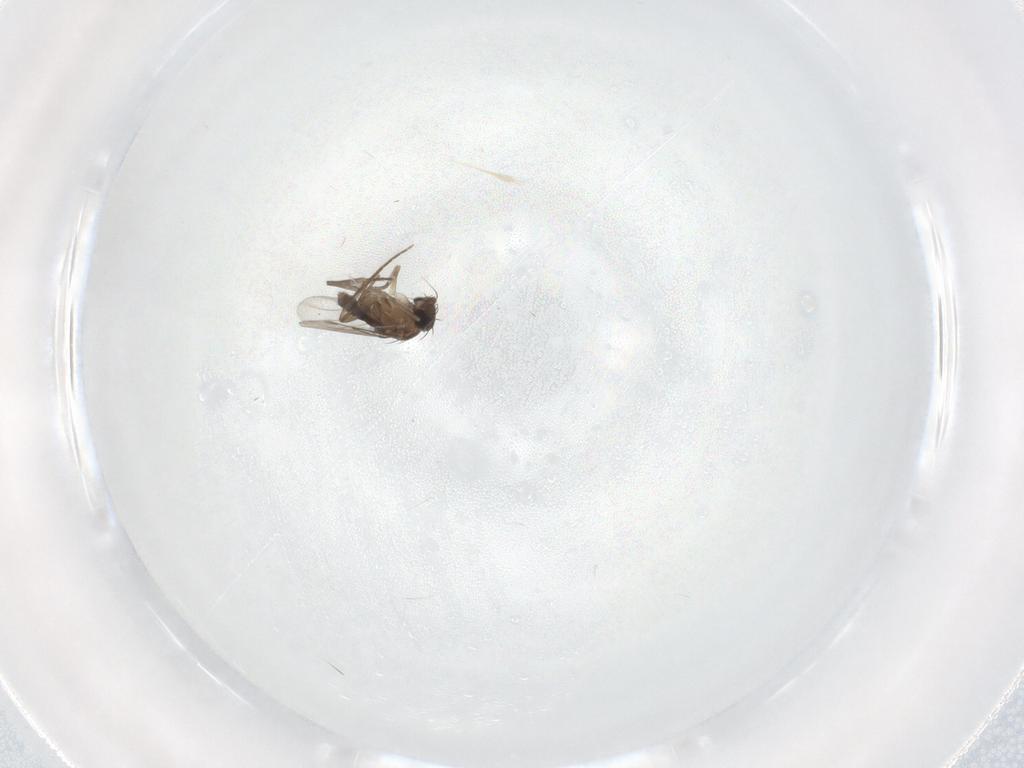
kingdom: Animalia
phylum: Arthropoda
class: Insecta
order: Diptera
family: Phoridae
